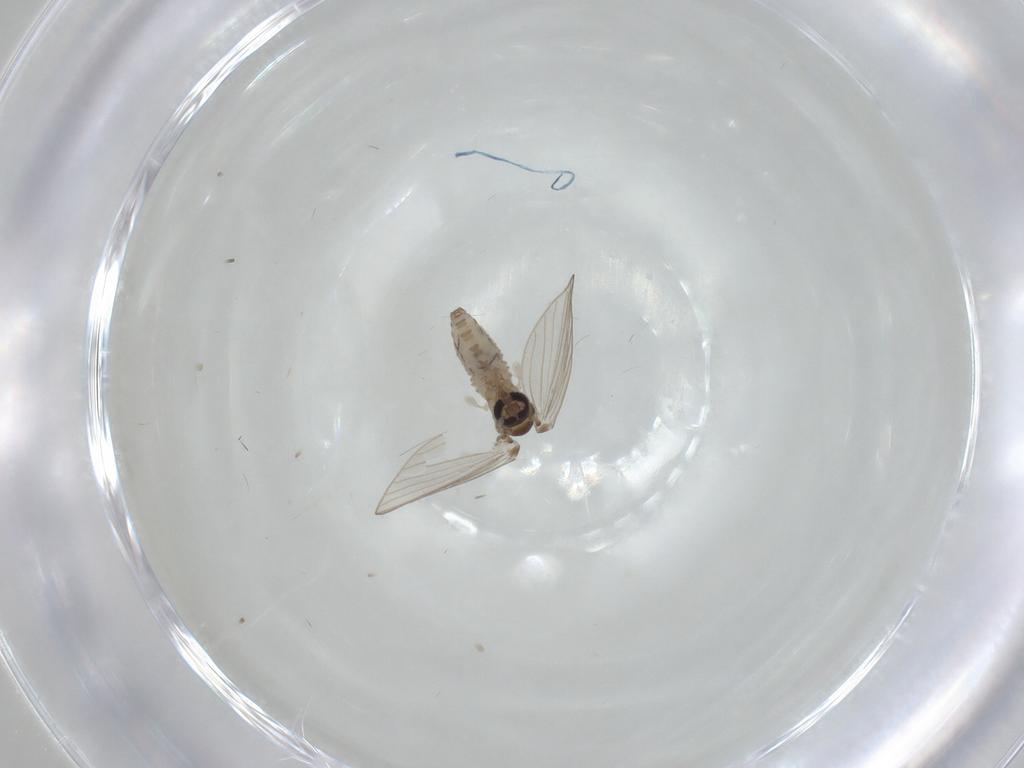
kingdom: Animalia
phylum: Arthropoda
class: Insecta
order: Diptera
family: Psychodidae
